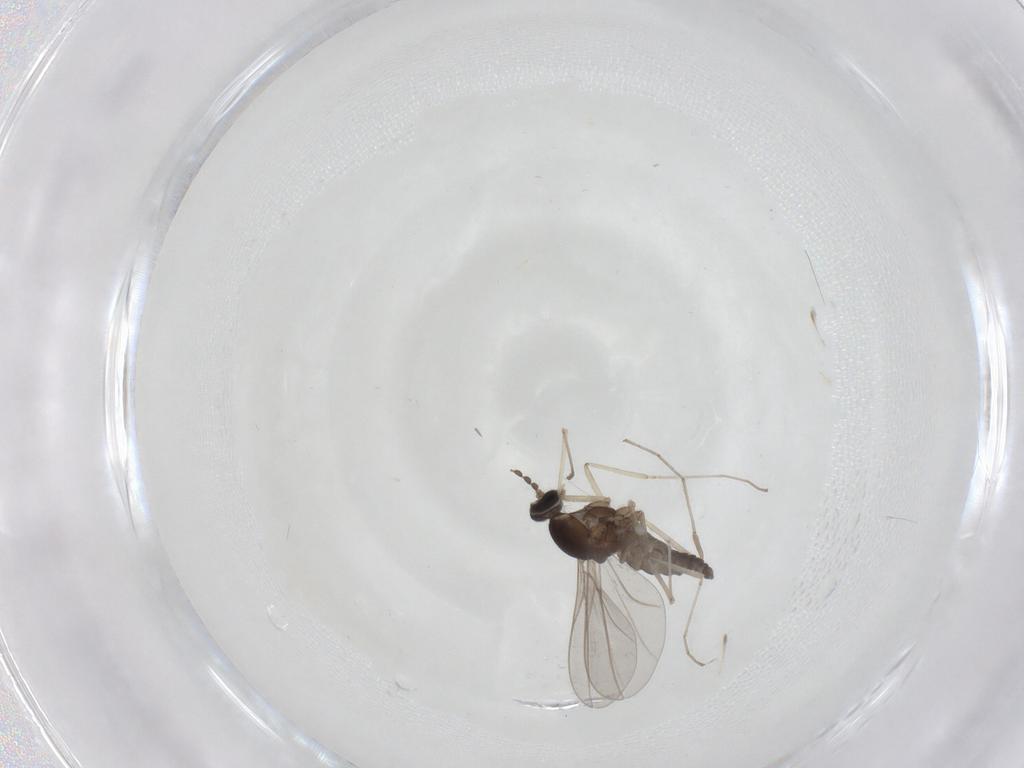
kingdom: Animalia
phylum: Arthropoda
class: Insecta
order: Diptera
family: Cecidomyiidae
